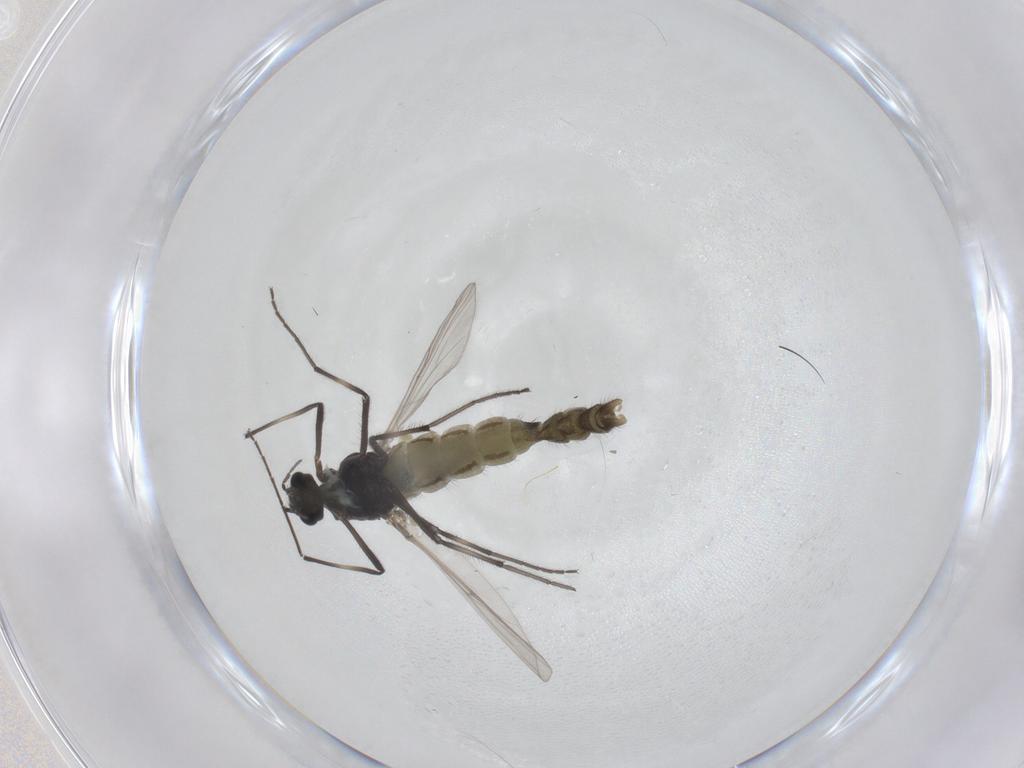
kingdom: Animalia
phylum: Arthropoda
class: Insecta
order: Diptera
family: Chironomidae
